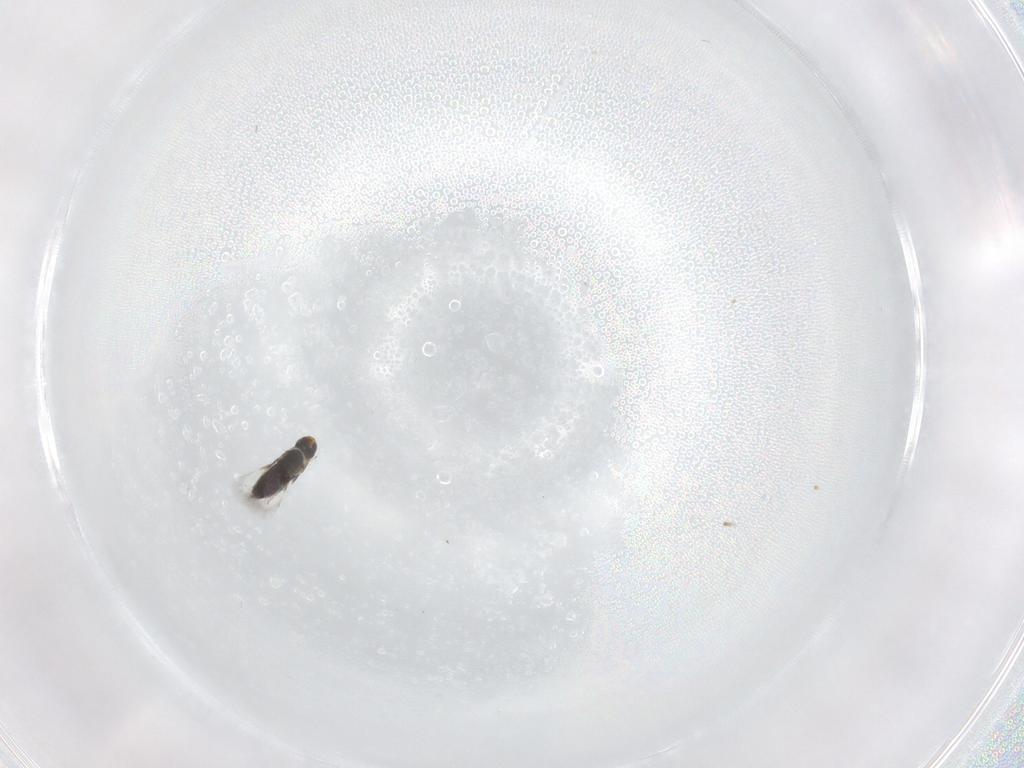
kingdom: Animalia
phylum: Arthropoda
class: Insecta
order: Hymenoptera
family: Signiphoridae
